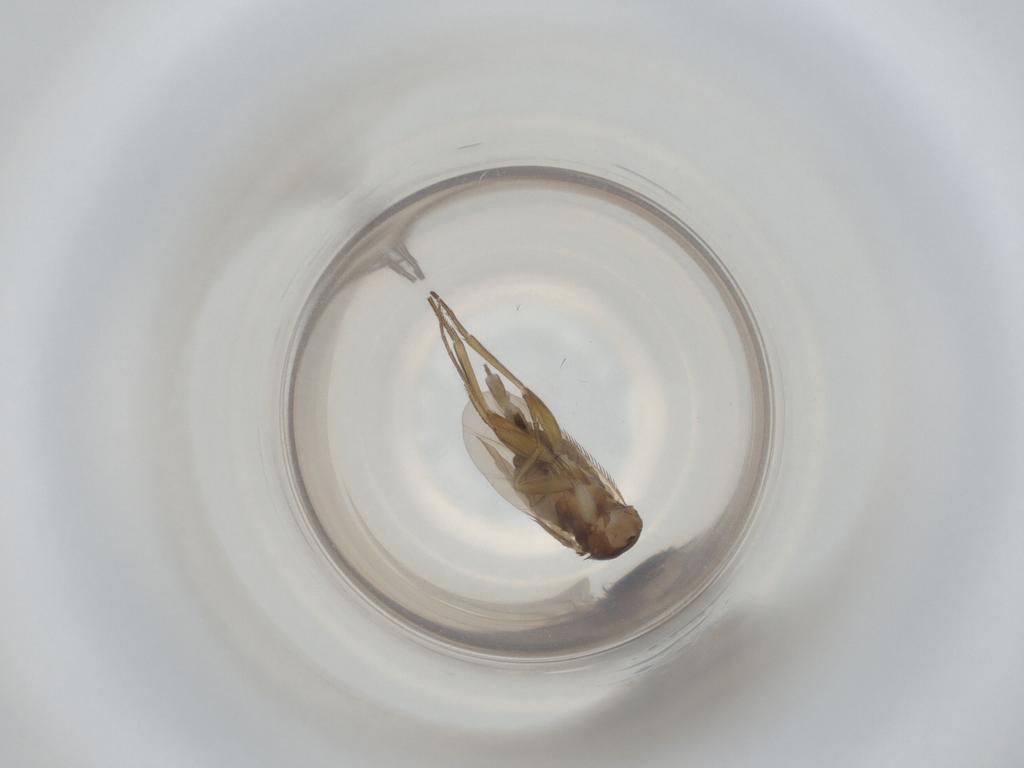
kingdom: Animalia
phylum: Arthropoda
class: Insecta
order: Diptera
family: Phoridae
